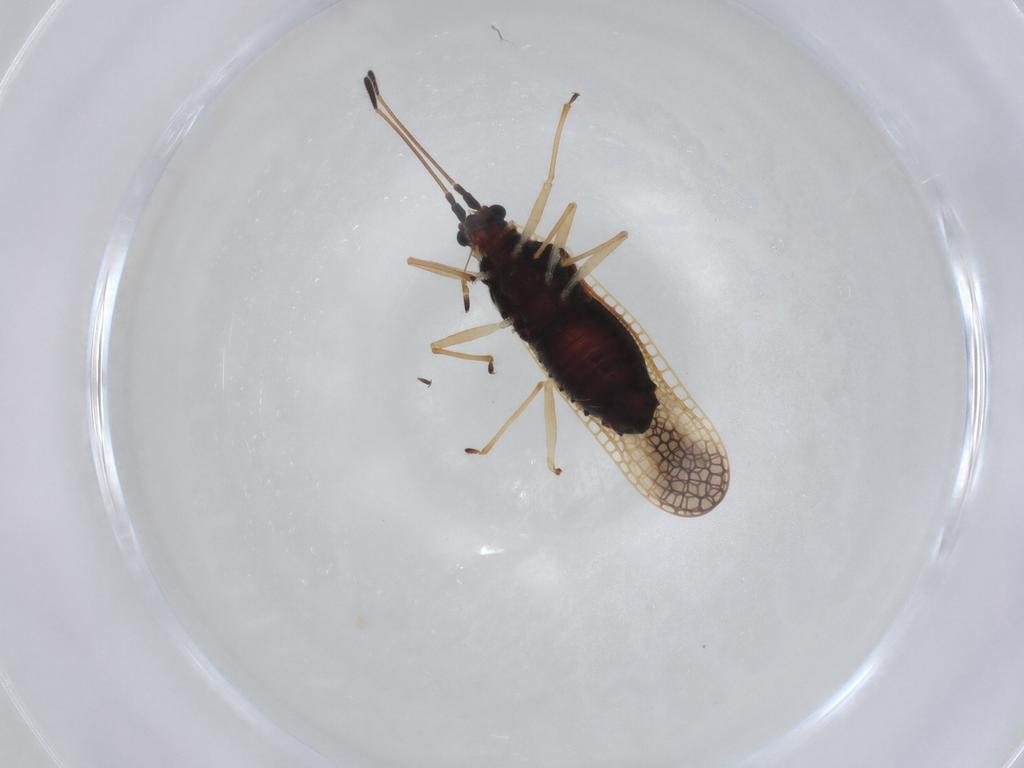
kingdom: Animalia
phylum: Arthropoda
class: Insecta
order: Hemiptera
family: Tingidae
